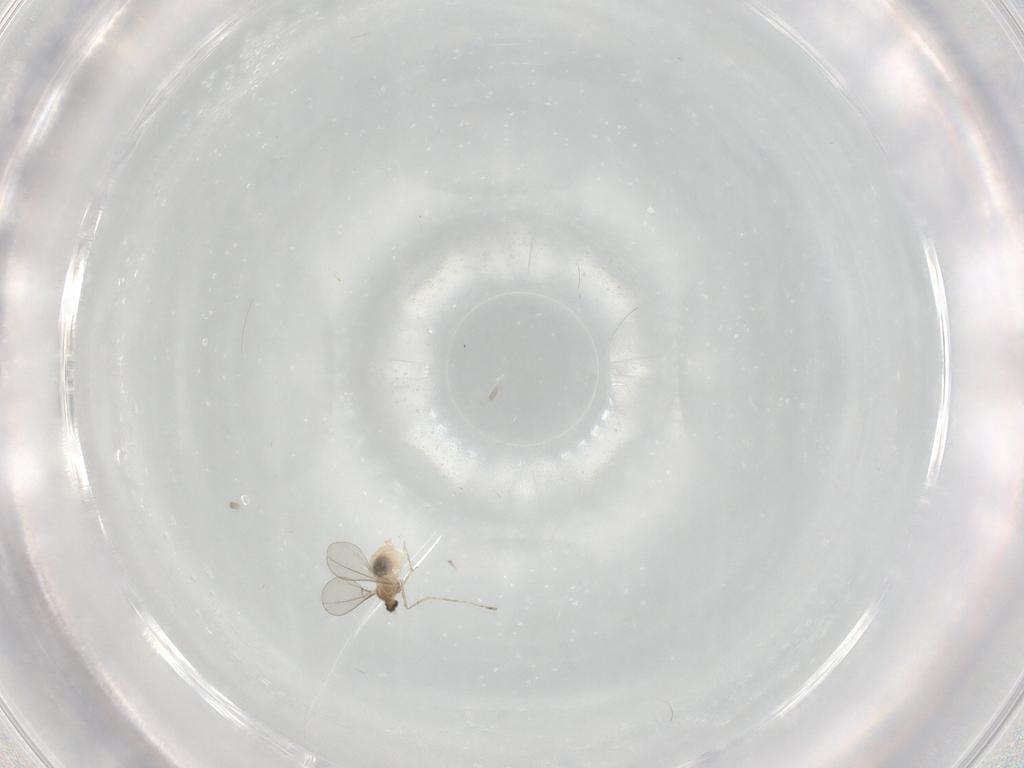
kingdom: Animalia
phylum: Arthropoda
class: Insecta
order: Diptera
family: Cecidomyiidae
